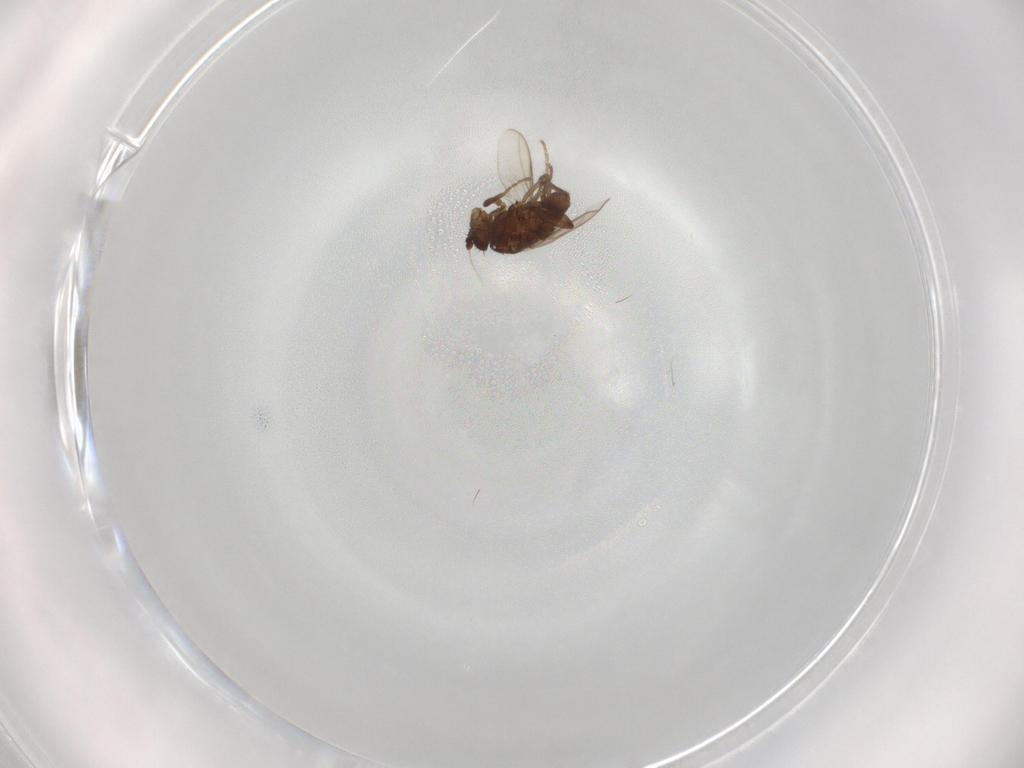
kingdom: Animalia
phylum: Arthropoda
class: Insecta
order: Diptera
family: Sphaeroceridae
